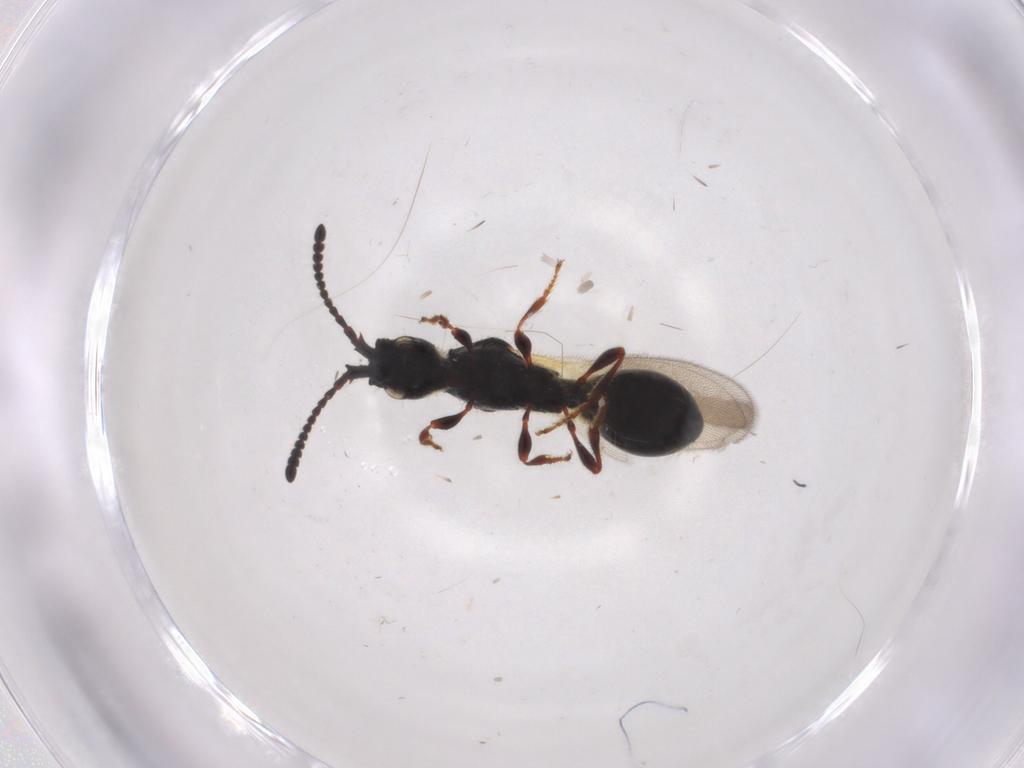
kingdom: Animalia
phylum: Arthropoda
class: Insecta
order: Hymenoptera
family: Diapriidae
